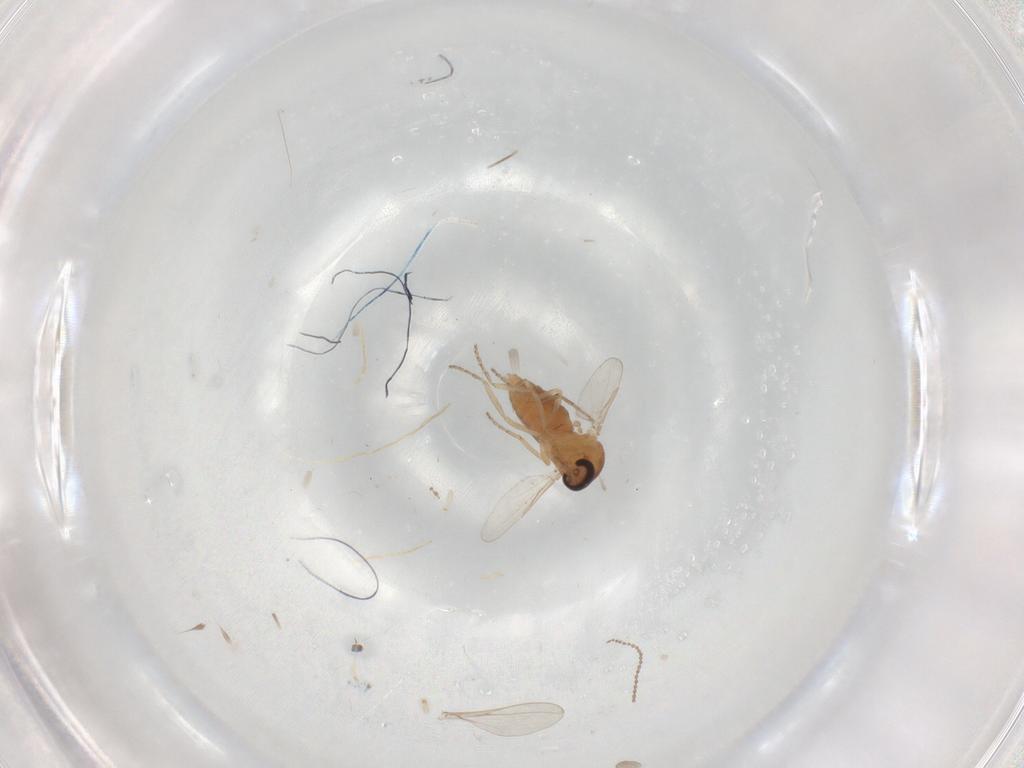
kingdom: Animalia
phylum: Arthropoda
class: Insecta
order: Diptera
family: Ceratopogonidae
